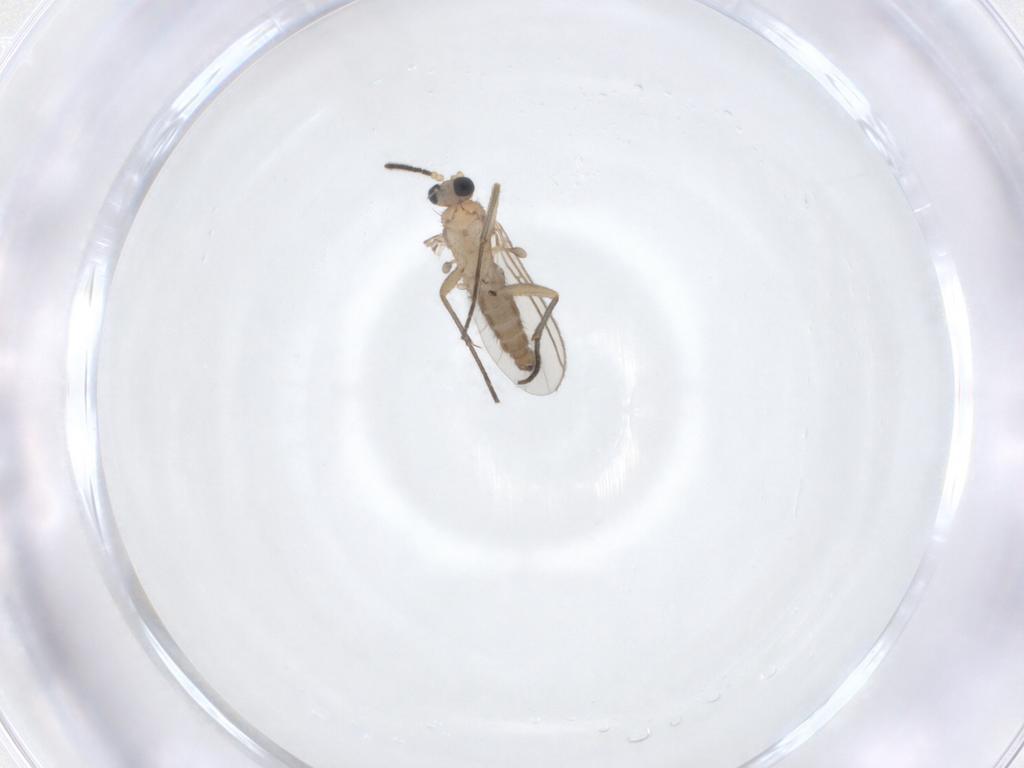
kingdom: Animalia
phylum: Arthropoda
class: Insecta
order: Diptera
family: Sciaridae
